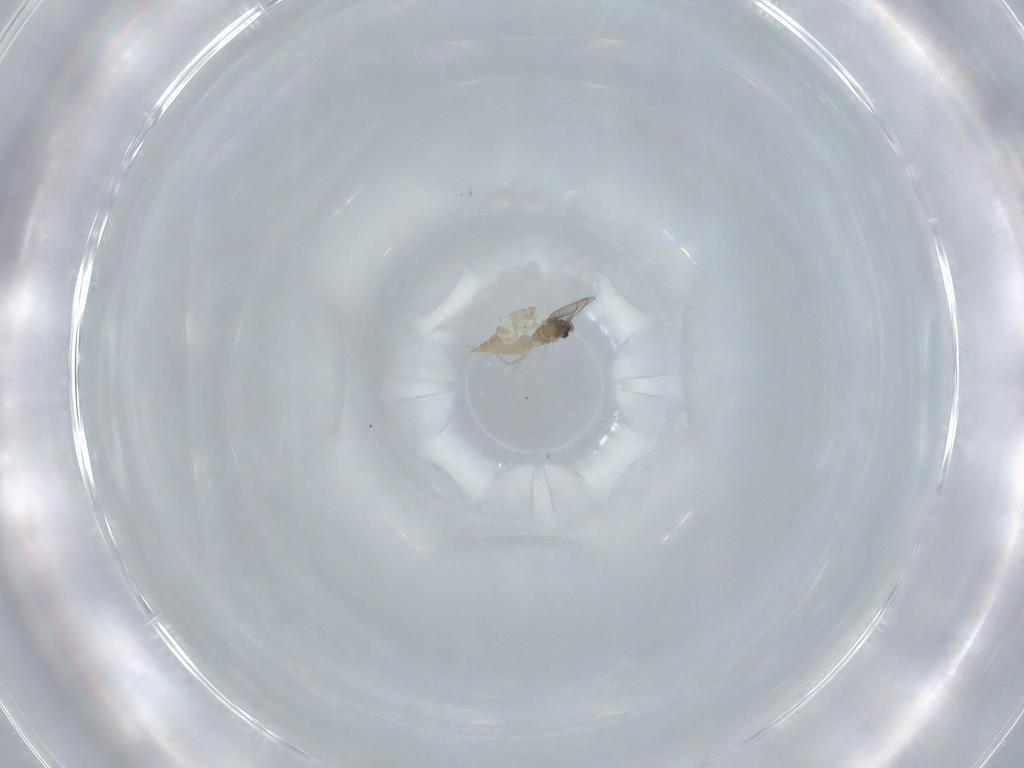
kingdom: Animalia
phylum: Arthropoda
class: Insecta
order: Diptera
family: Cecidomyiidae
